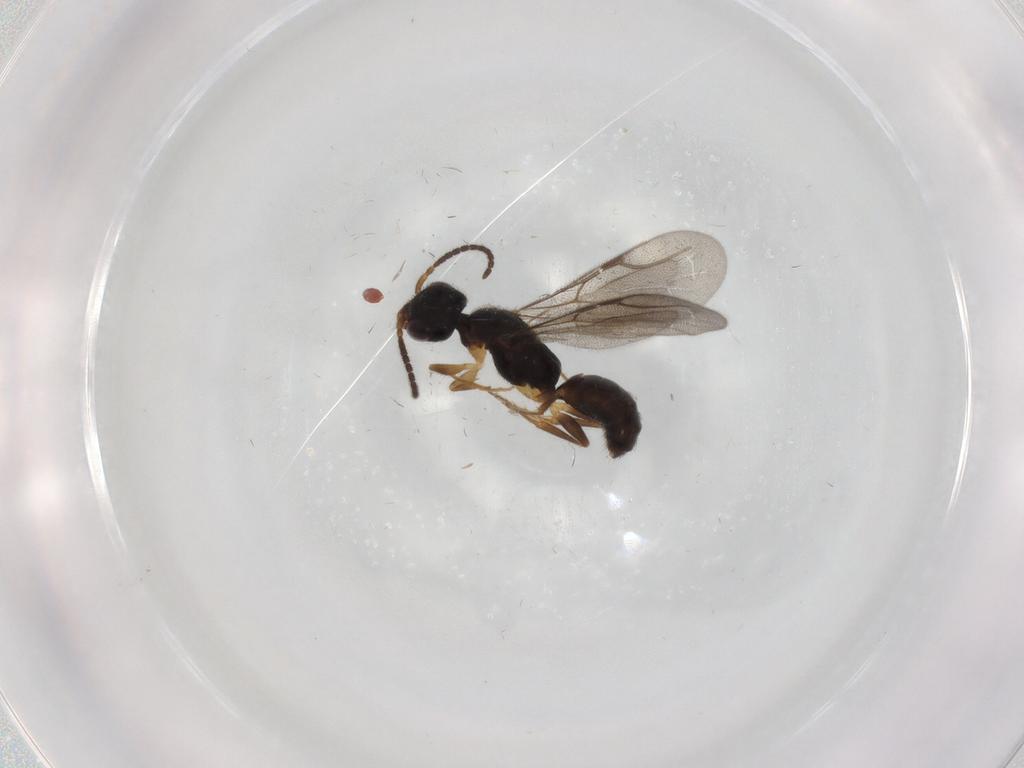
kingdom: Animalia
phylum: Arthropoda
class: Insecta
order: Hymenoptera
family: Bethylidae
